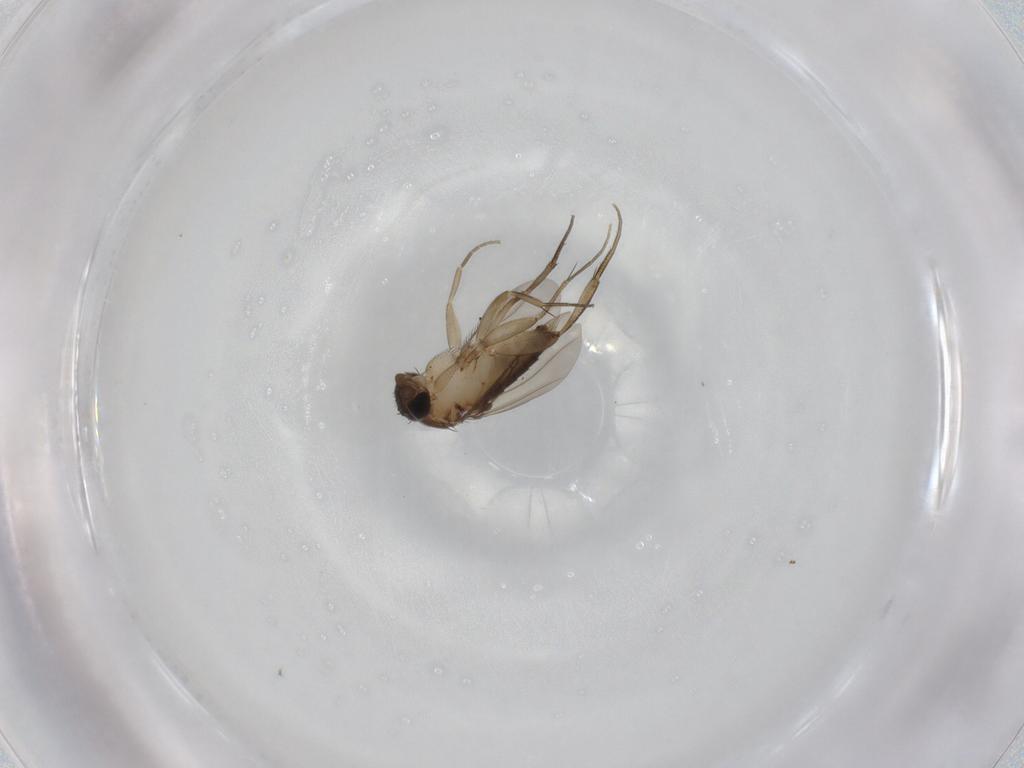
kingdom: Animalia
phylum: Arthropoda
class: Insecta
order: Diptera
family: Phoridae
